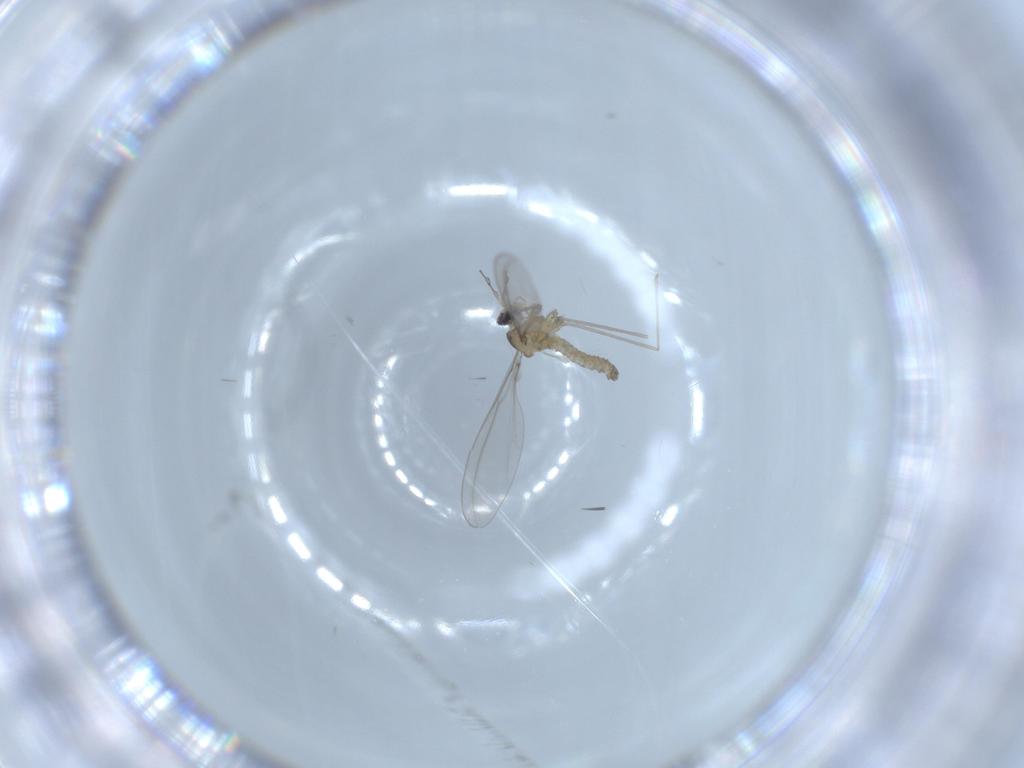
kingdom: Animalia
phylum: Arthropoda
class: Insecta
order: Diptera
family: Cecidomyiidae
